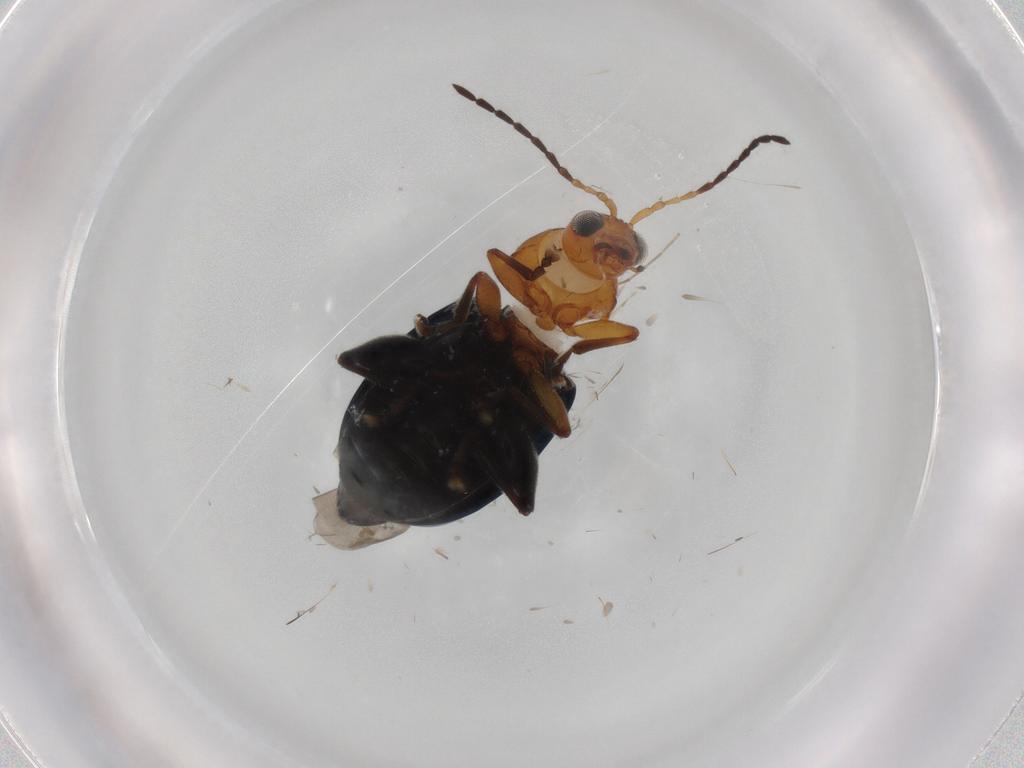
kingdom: Animalia
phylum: Arthropoda
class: Insecta
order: Coleoptera
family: Chrysomelidae
